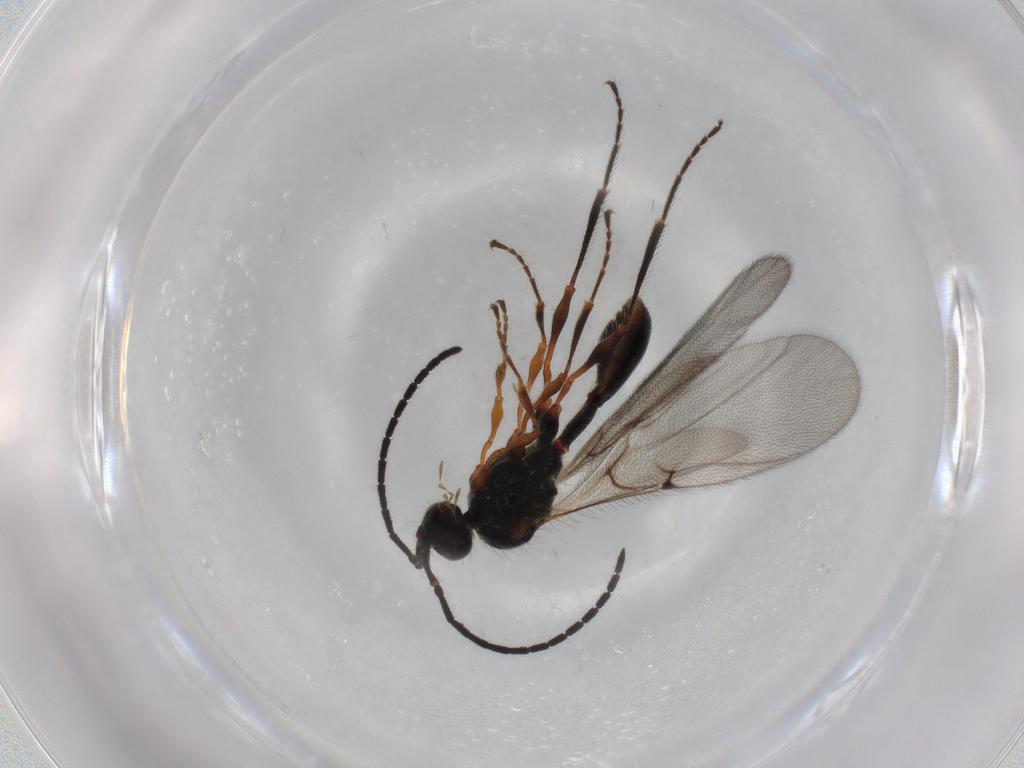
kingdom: Animalia
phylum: Arthropoda
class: Insecta
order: Hymenoptera
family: Diapriidae
